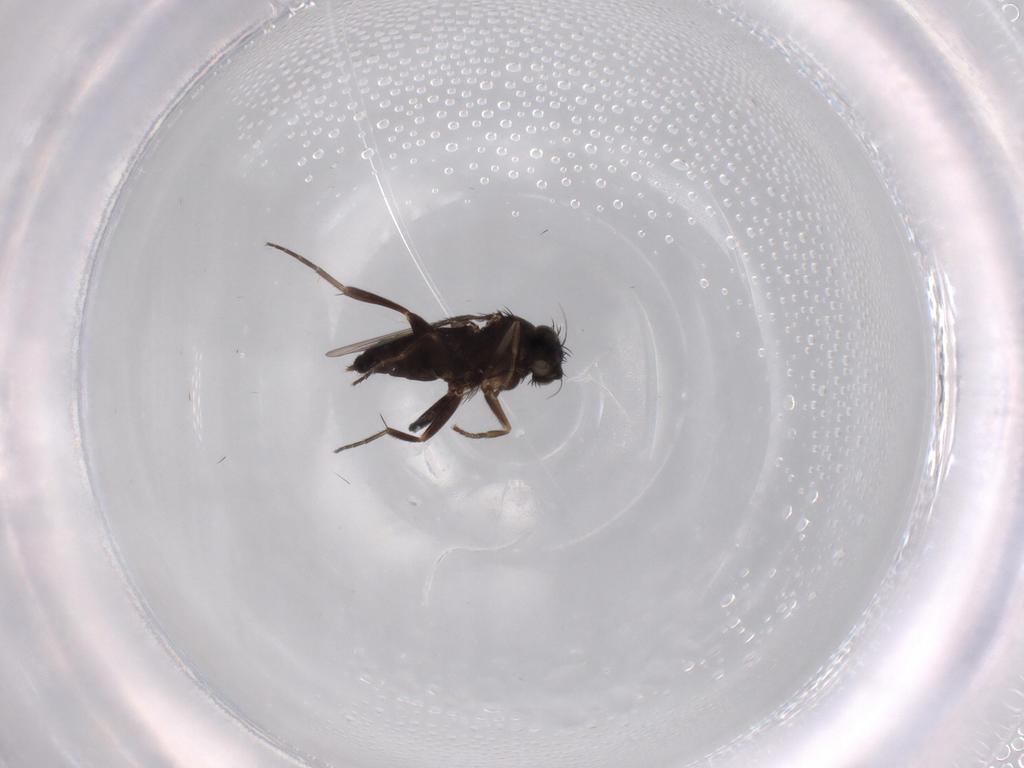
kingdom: Animalia
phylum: Arthropoda
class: Insecta
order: Diptera
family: Phoridae
